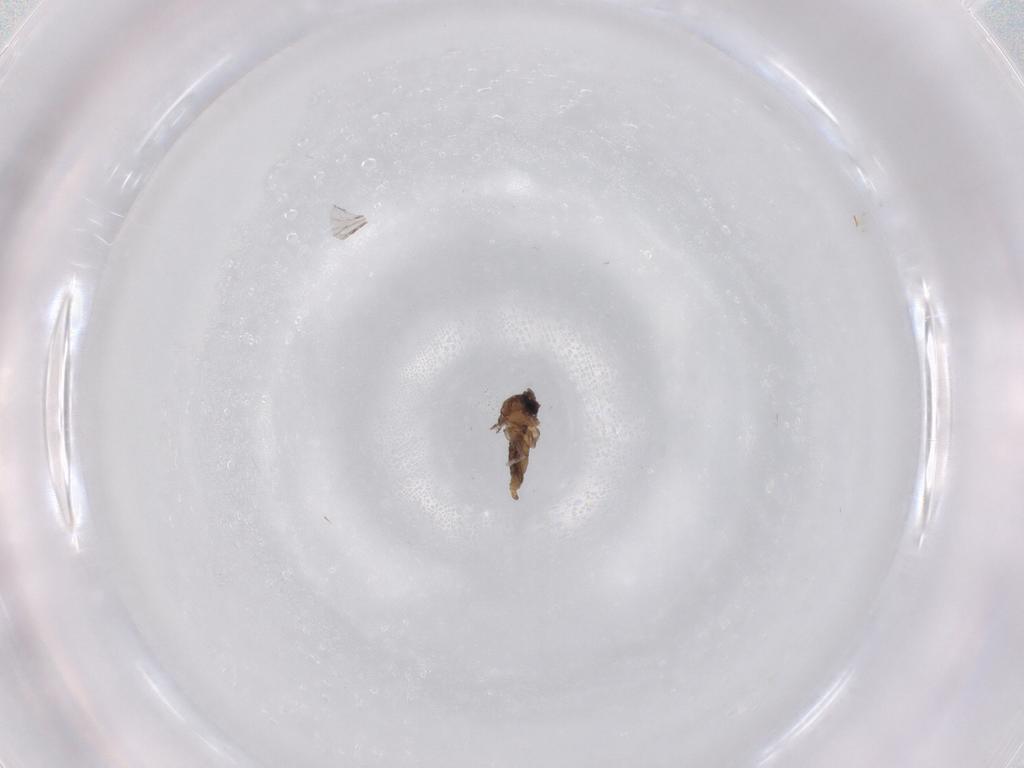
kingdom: Animalia
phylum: Arthropoda
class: Insecta
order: Diptera
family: Cecidomyiidae
